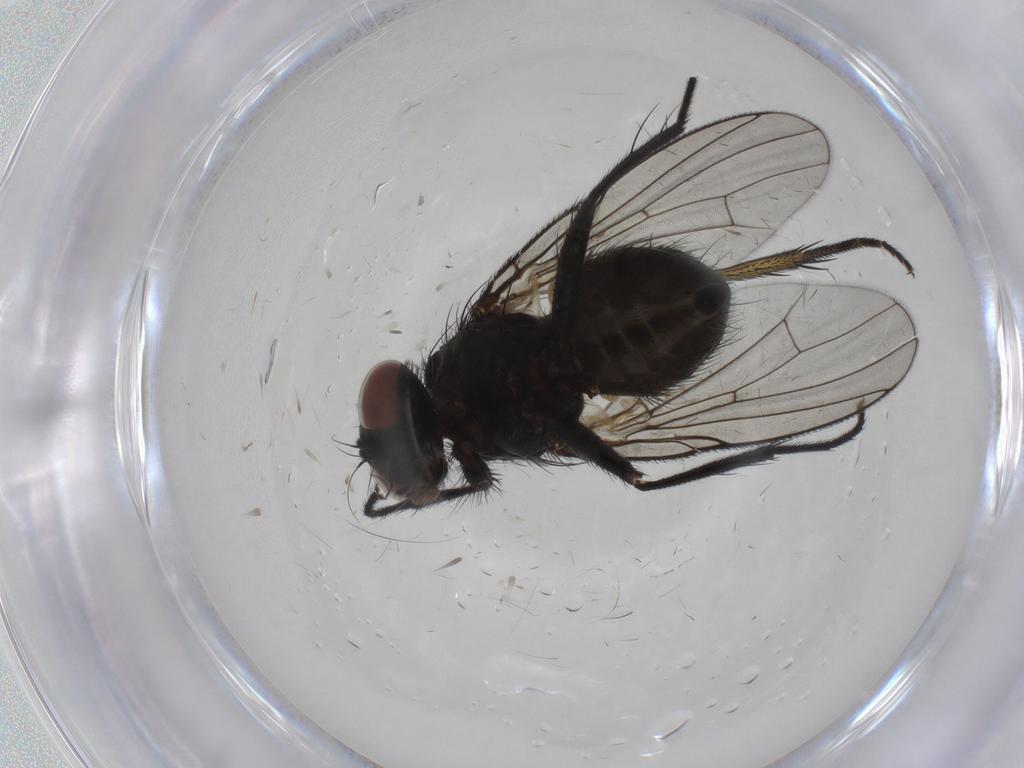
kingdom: Animalia
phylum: Arthropoda
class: Insecta
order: Diptera
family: Muscidae
